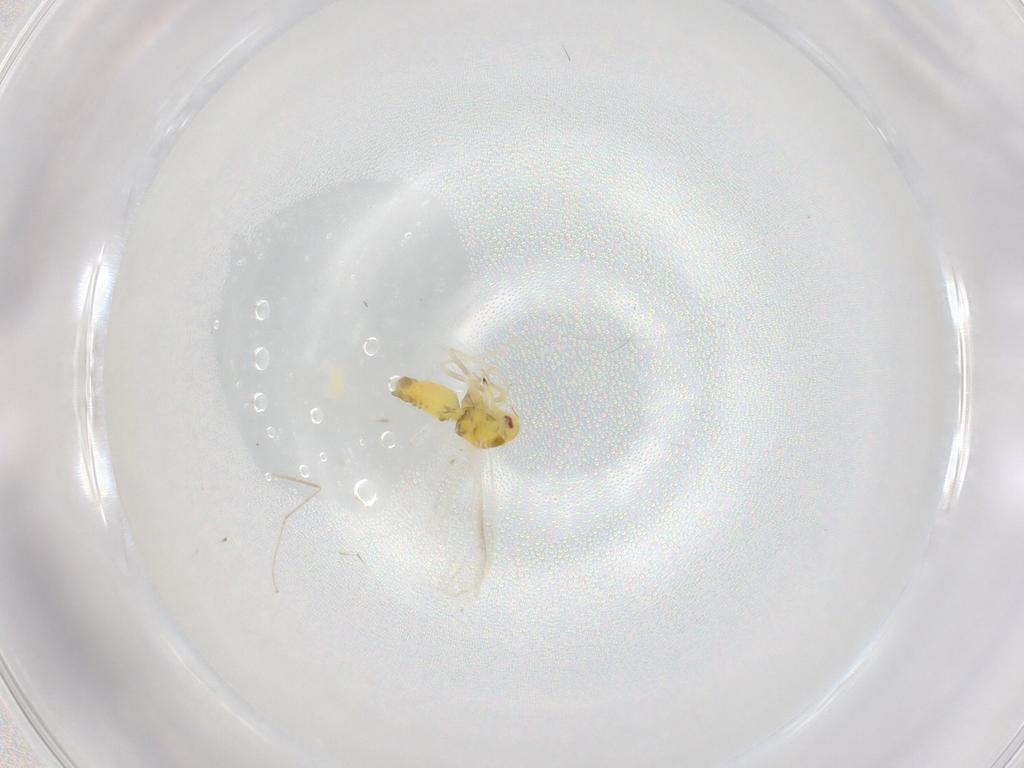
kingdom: Animalia
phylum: Arthropoda
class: Insecta
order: Hemiptera
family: Aleyrodidae
